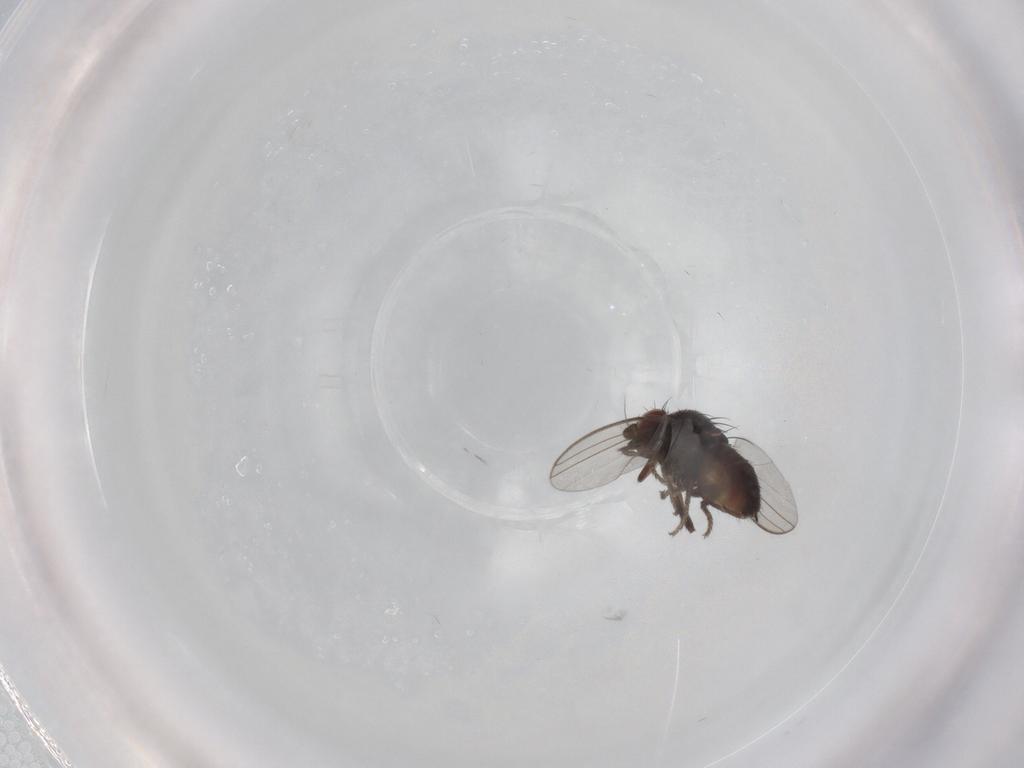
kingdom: Animalia
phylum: Arthropoda
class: Insecta
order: Diptera
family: Milichiidae
